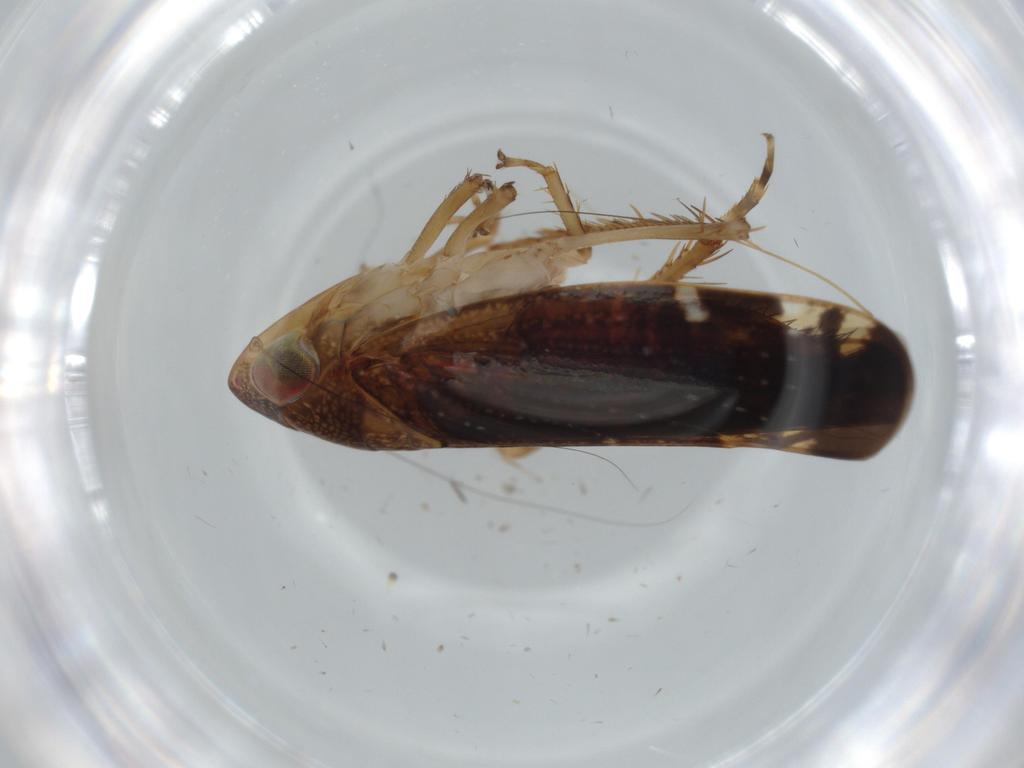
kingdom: Animalia
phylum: Arthropoda
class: Insecta
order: Hemiptera
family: Cicadellidae
